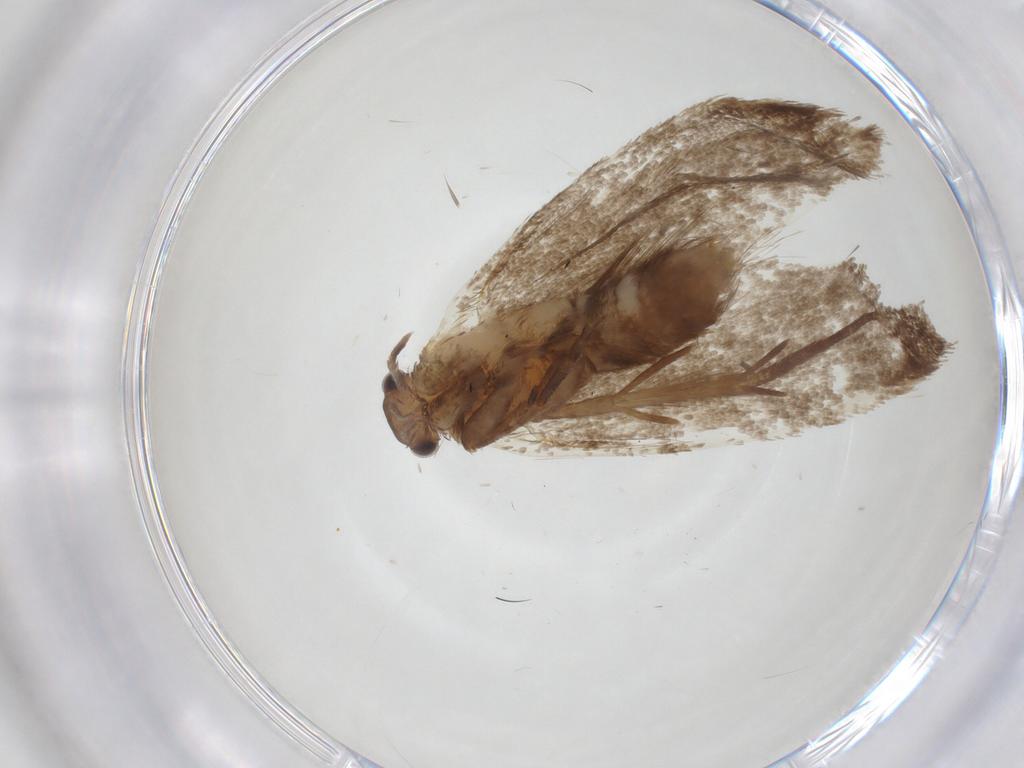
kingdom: Animalia
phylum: Arthropoda
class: Insecta
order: Lepidoptera
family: Dryadaulidae
